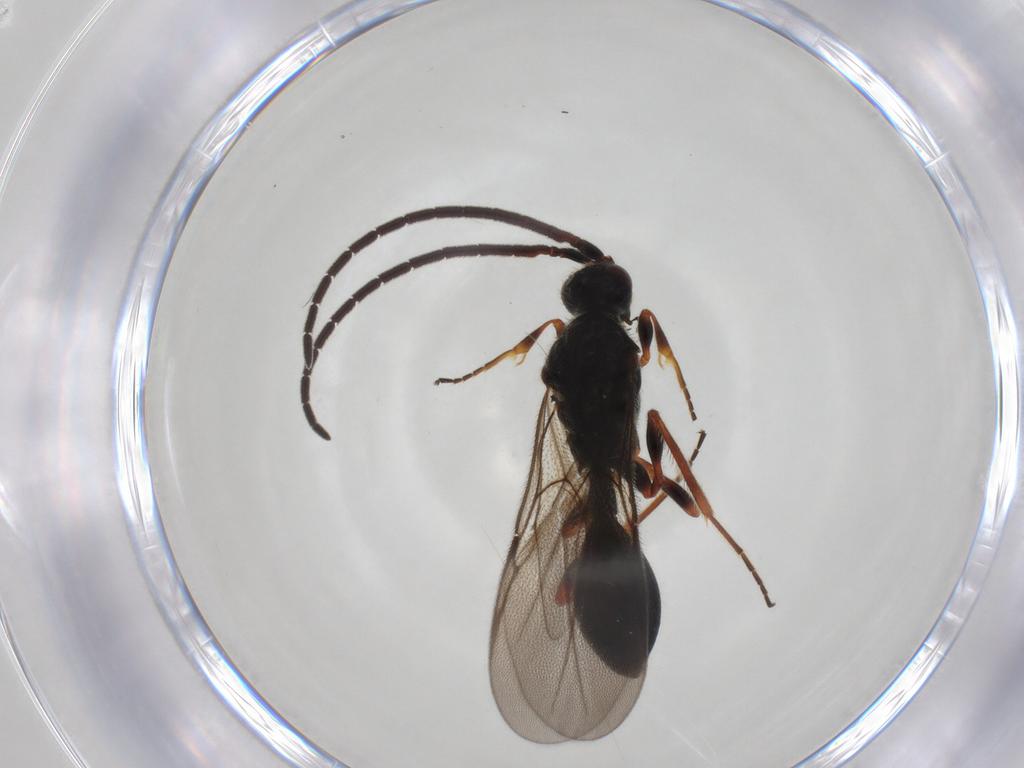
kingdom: Animalia
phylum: Arthropoda
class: Insecta
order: Hymenoptera
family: Diapriidae
